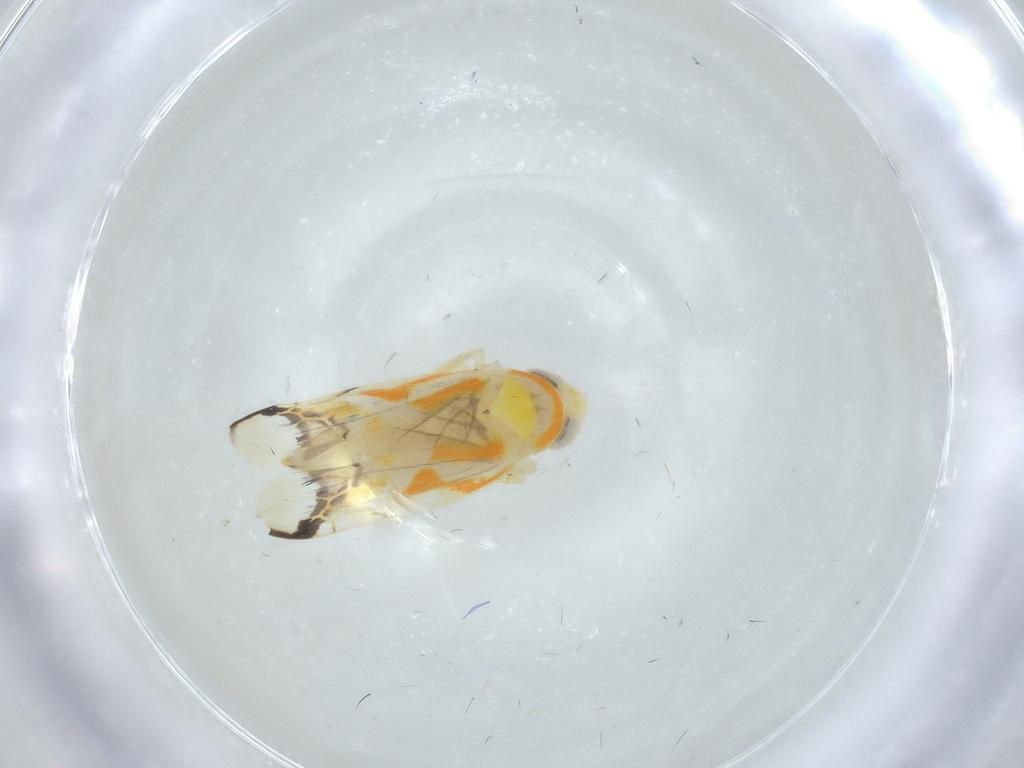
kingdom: Animalia
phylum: Arthropoda
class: Insecta
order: Hemiptera
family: Cicadellidae
